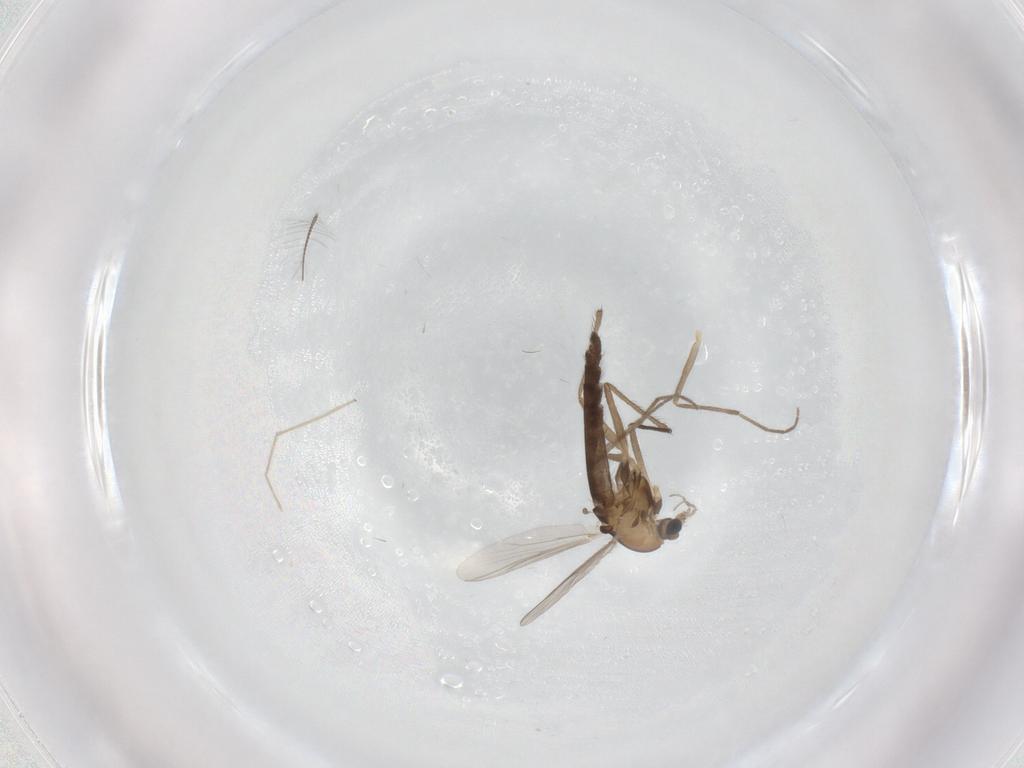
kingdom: Animalia
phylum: Arthropoda
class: Insecta
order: Diptera
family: Chironomidae
